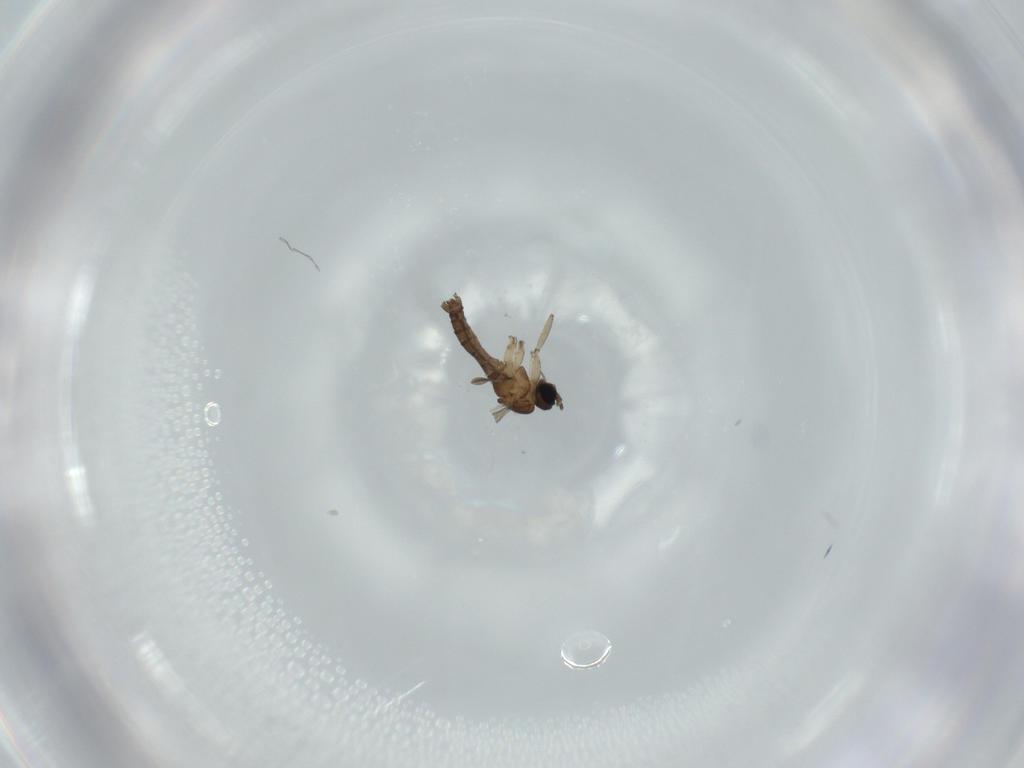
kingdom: Animalia
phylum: Arthropoda
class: Insecta
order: Diptera
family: Sciaridae
